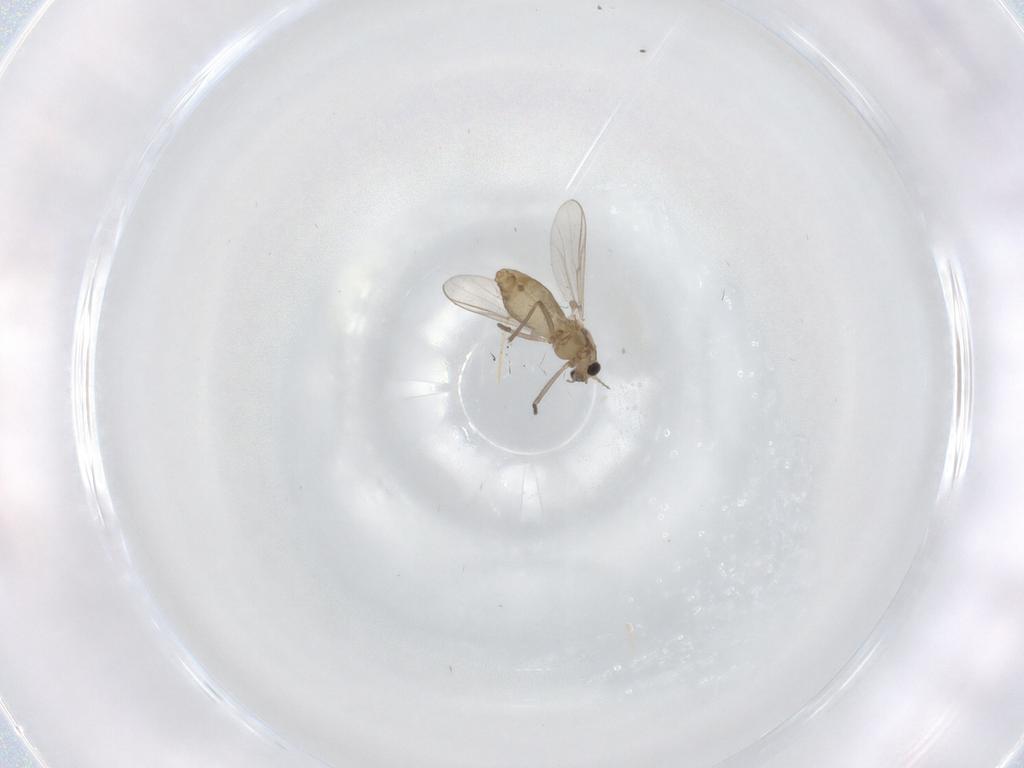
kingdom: Animalia
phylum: Arthropoda
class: Insecta
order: Diptera
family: Chironomidae
